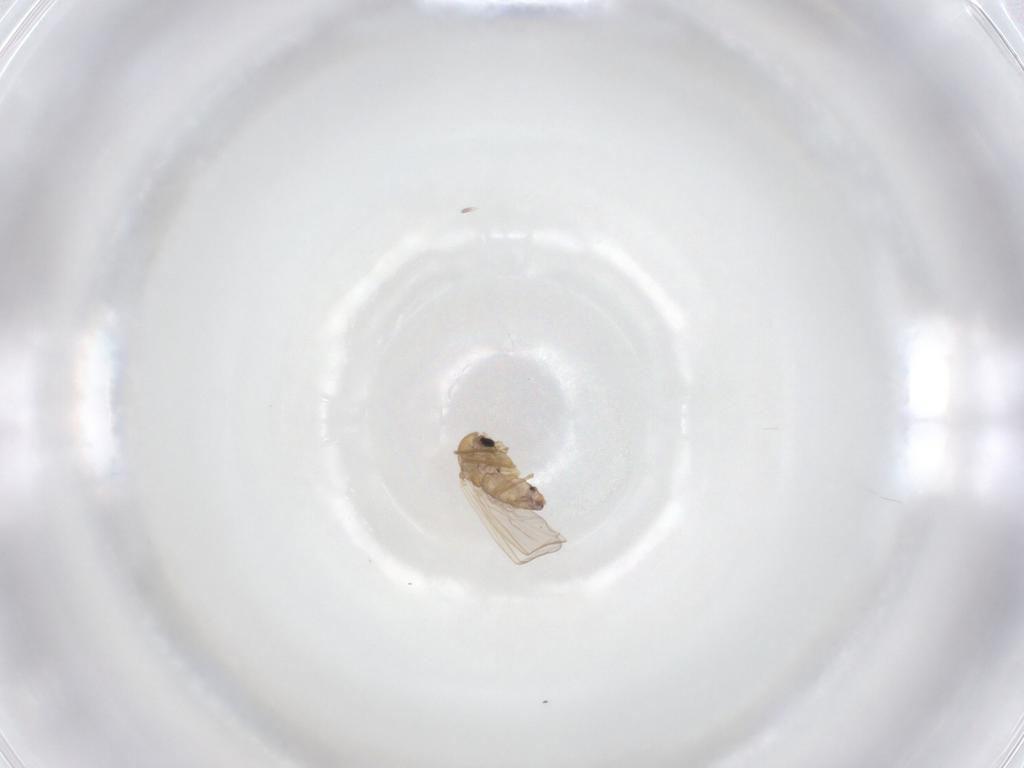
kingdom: Animalia
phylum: Arthropoda
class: Insecta
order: Diptera
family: Chironomidae
